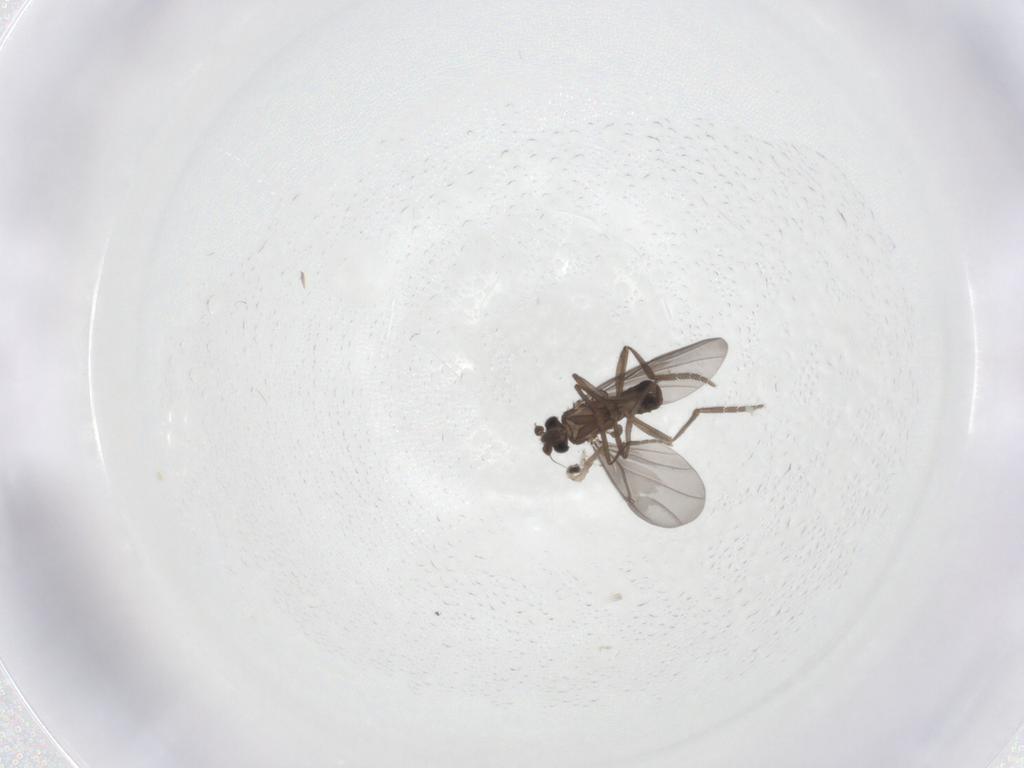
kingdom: Animalia
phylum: Arthropoda
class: Insecta
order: Diptera
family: Phoridae
